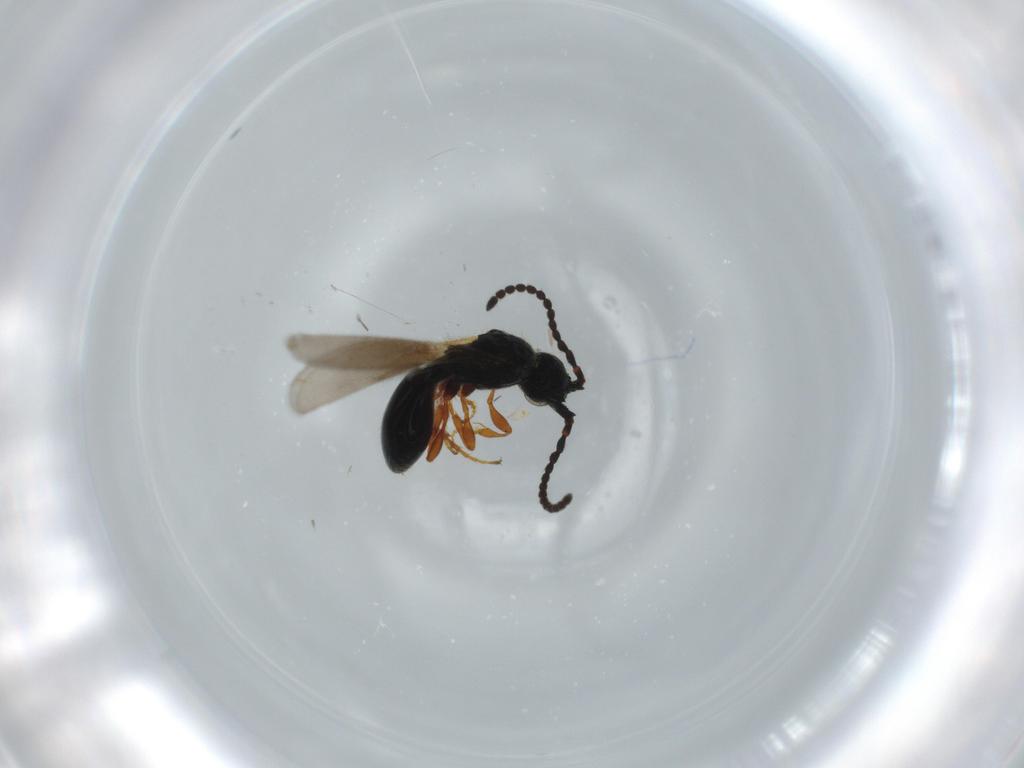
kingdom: Animalia
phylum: Arthropoda
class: Insecta
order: Hymenoptera
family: Diapriidae
